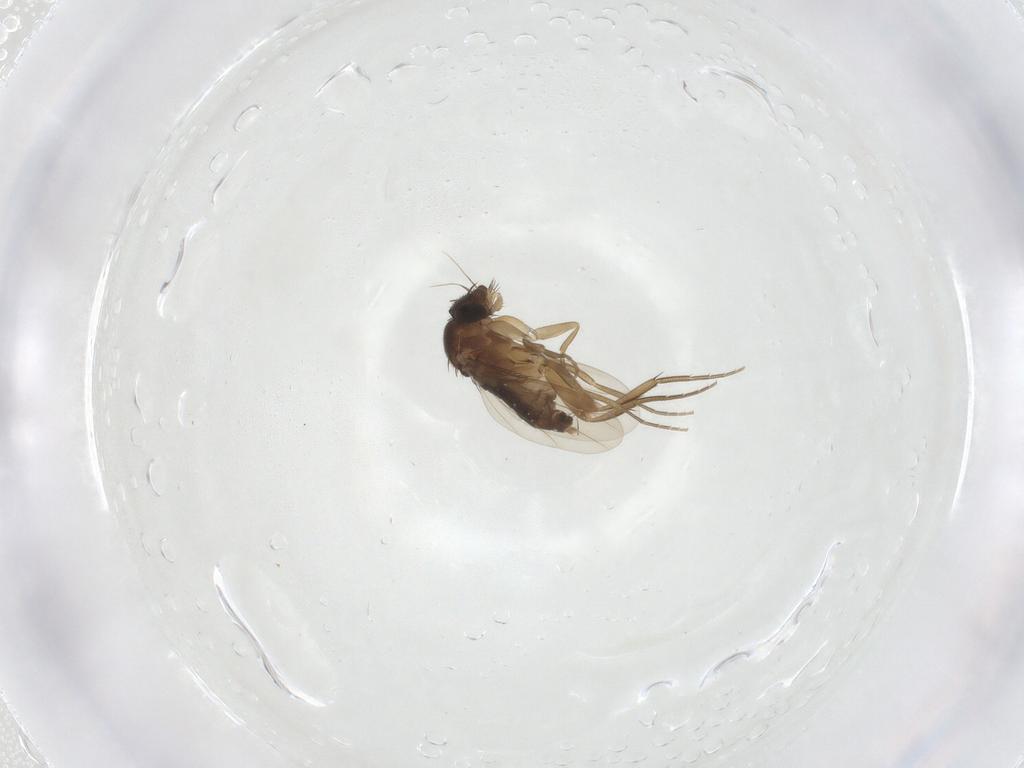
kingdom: Animalia
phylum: Arthropoda
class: Insecta
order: Diptera
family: Phoridae
